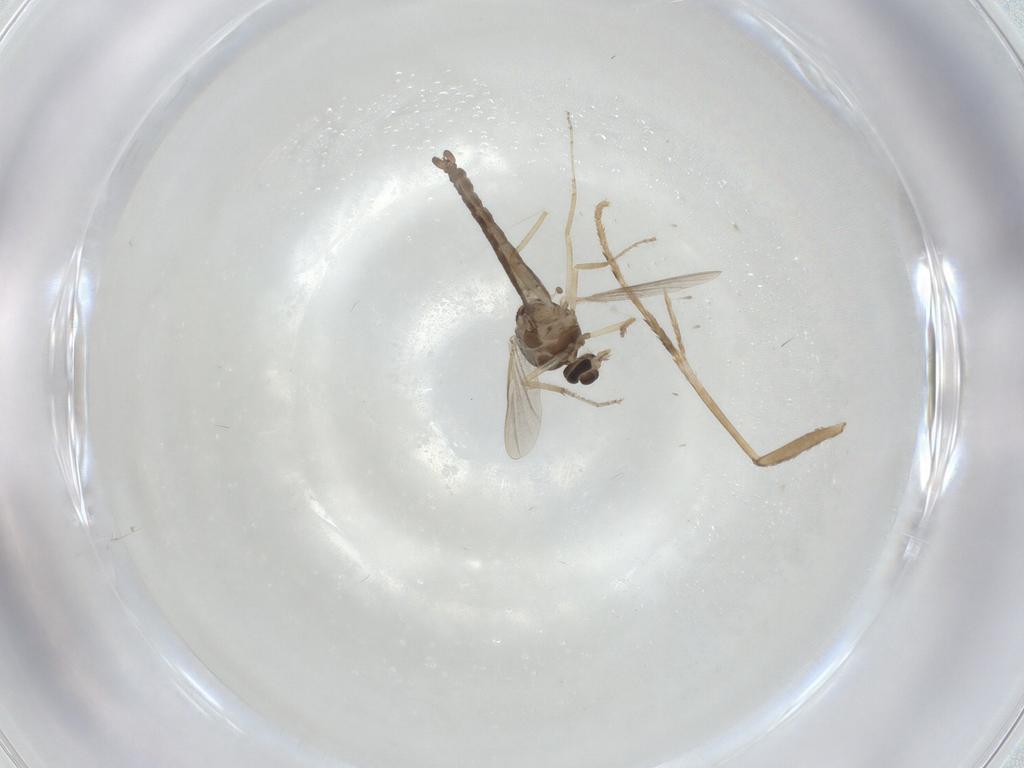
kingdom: Animalia
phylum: Arthropoda
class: Insecta
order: Diptera
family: Ceratopogonidae
